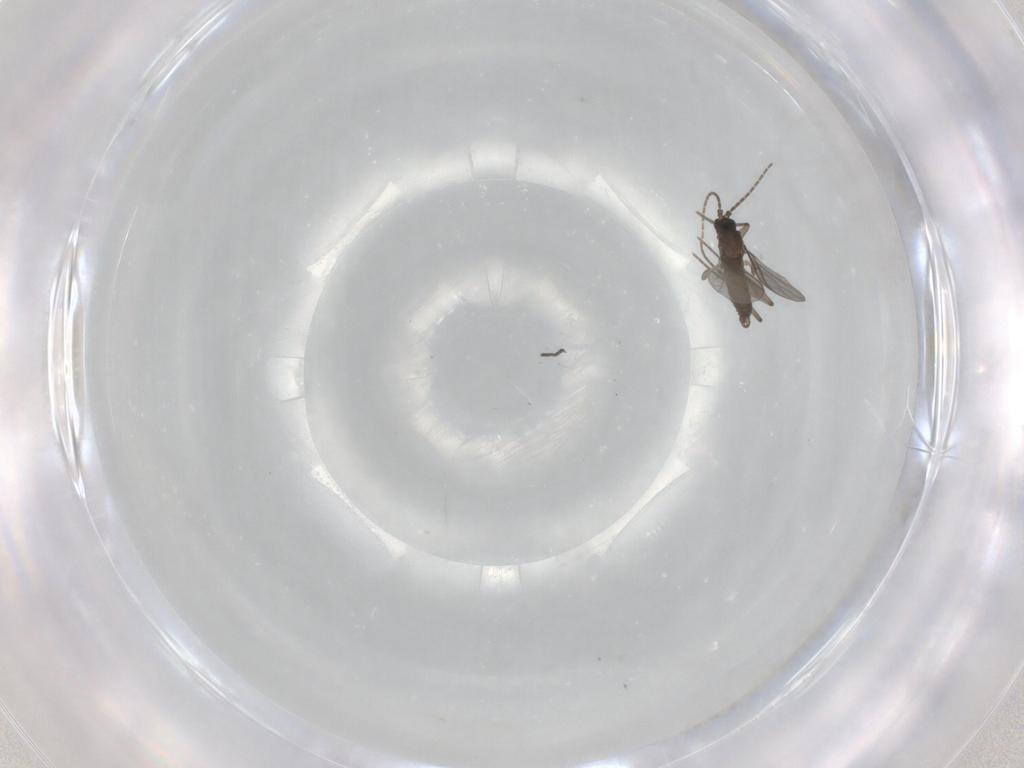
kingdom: Animalia
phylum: Arthropoda
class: Insecta
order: Diptera
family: Sciaridae
